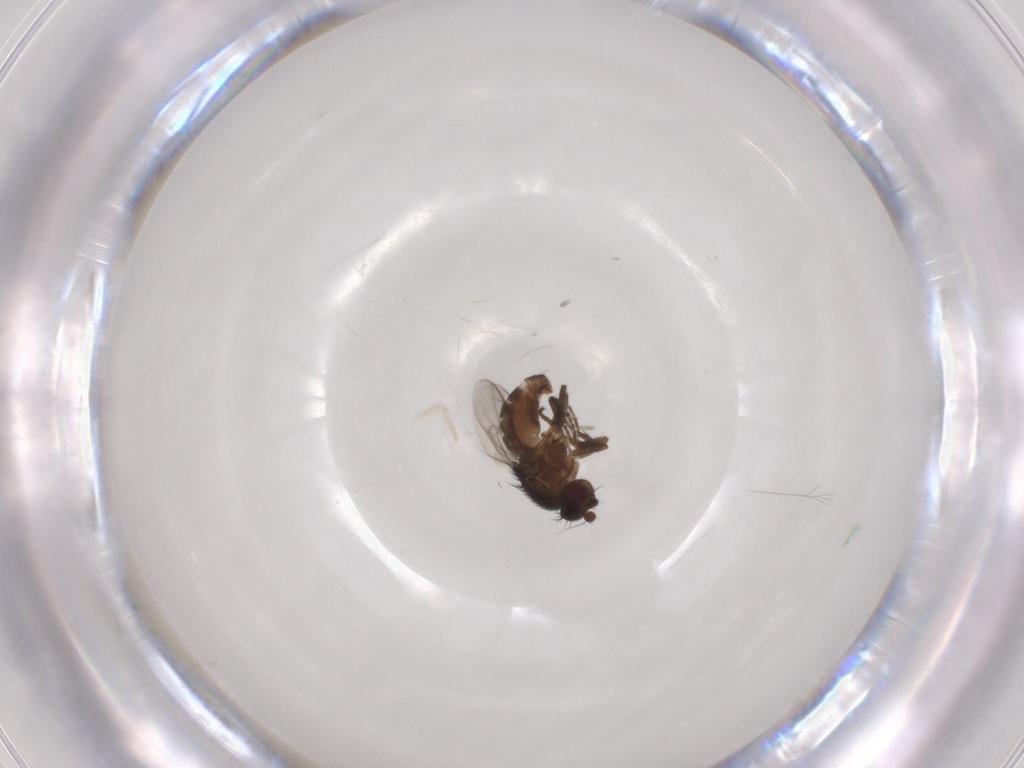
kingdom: Animalia
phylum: Arthropoda
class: Insecta
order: Diptera
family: Sphaeroceridae
